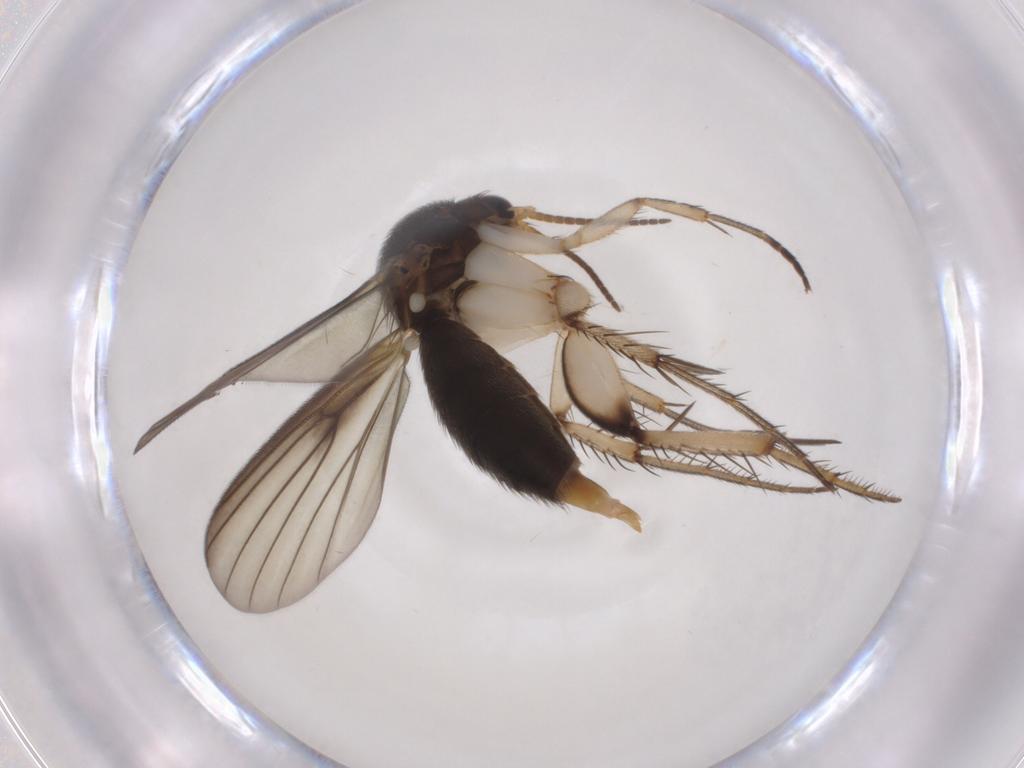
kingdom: Animalia
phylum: Arthropoda
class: Insecta
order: Diptera
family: Mycetophilidae
